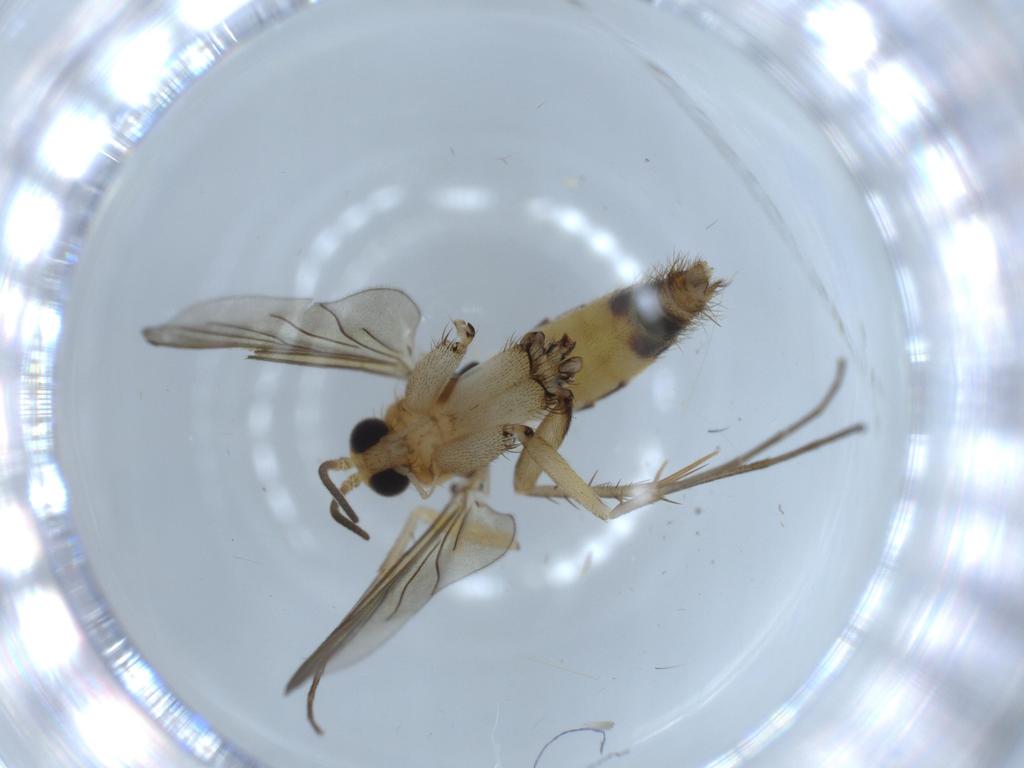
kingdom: Animalia
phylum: Arthropoda
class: Insecta
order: Diptera
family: Mycetophilidae
